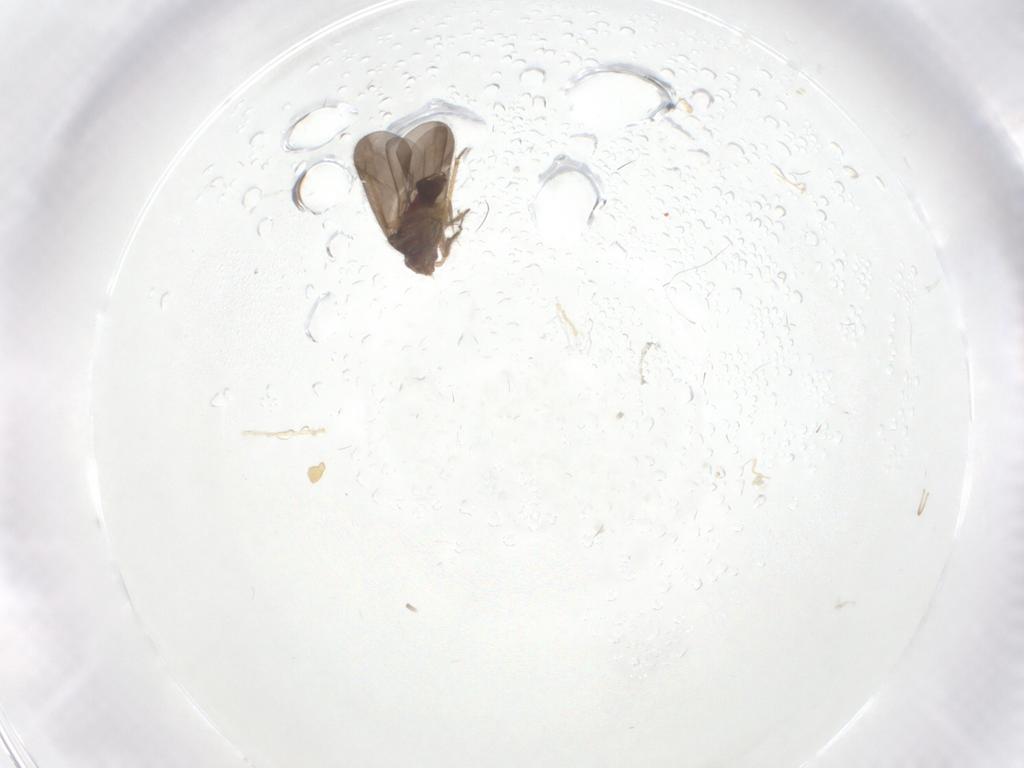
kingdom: Animalia
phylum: Arthropoda
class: Insecta
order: Hemiptera
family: Ceratocombidae
